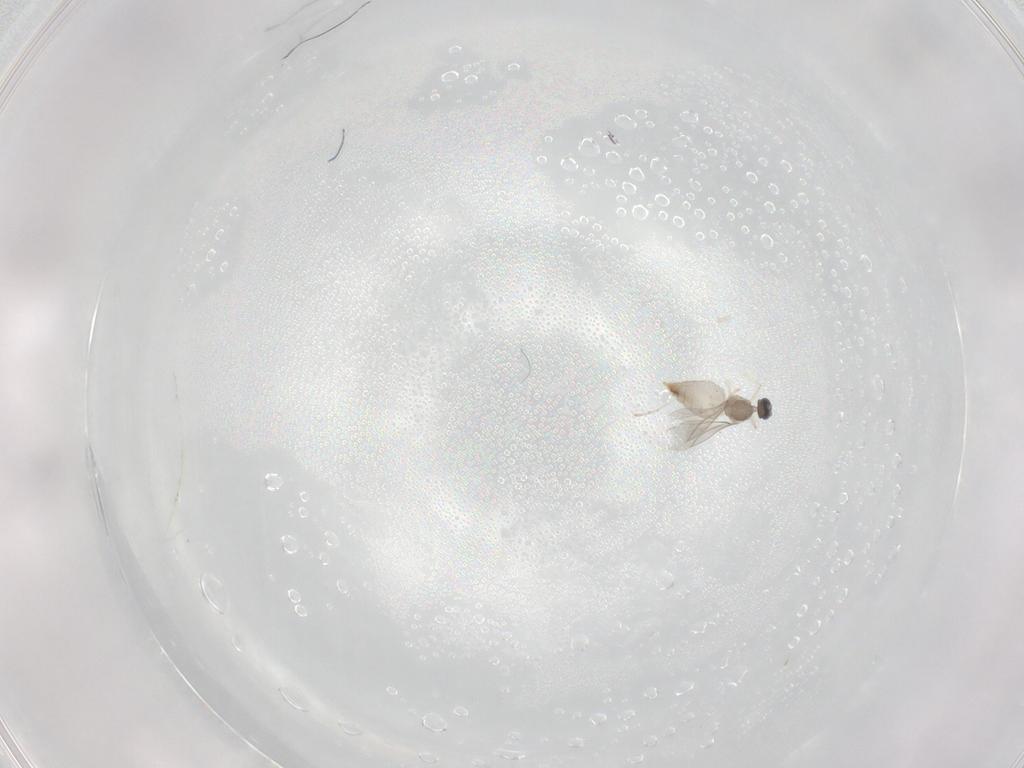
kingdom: Animalia
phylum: Arthropoda
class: Insecta
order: Diptera
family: Cecidomyiidae
